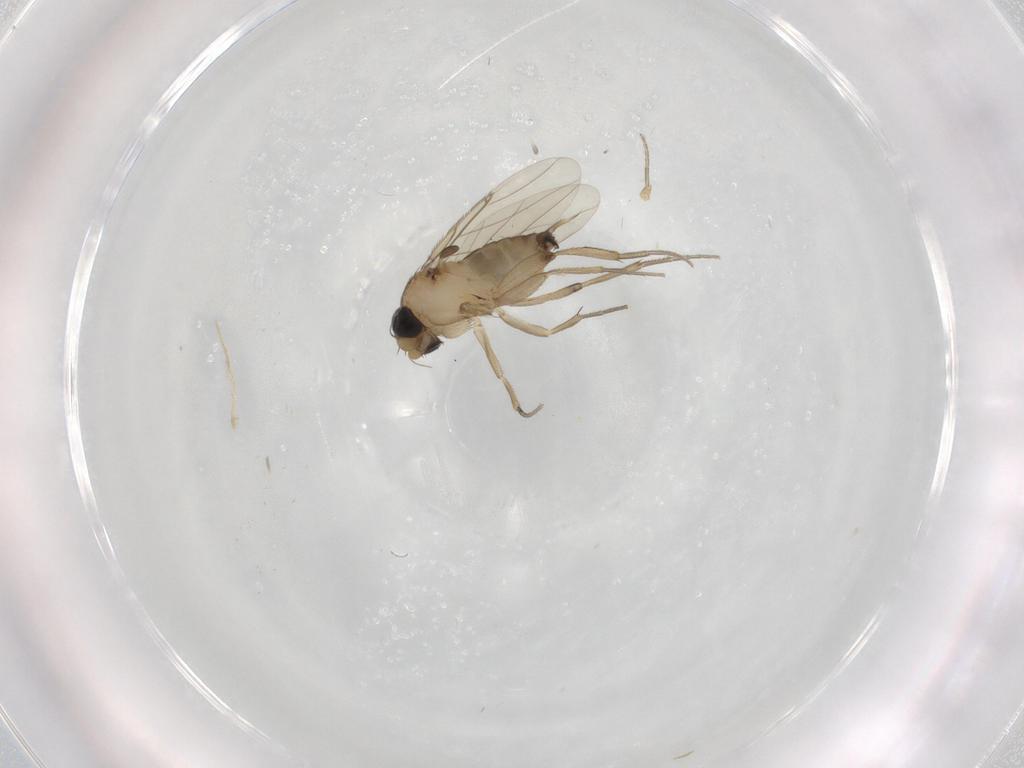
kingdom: Animalia
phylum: Arthropoda
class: Insecta
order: Diptera
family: Phoridae
